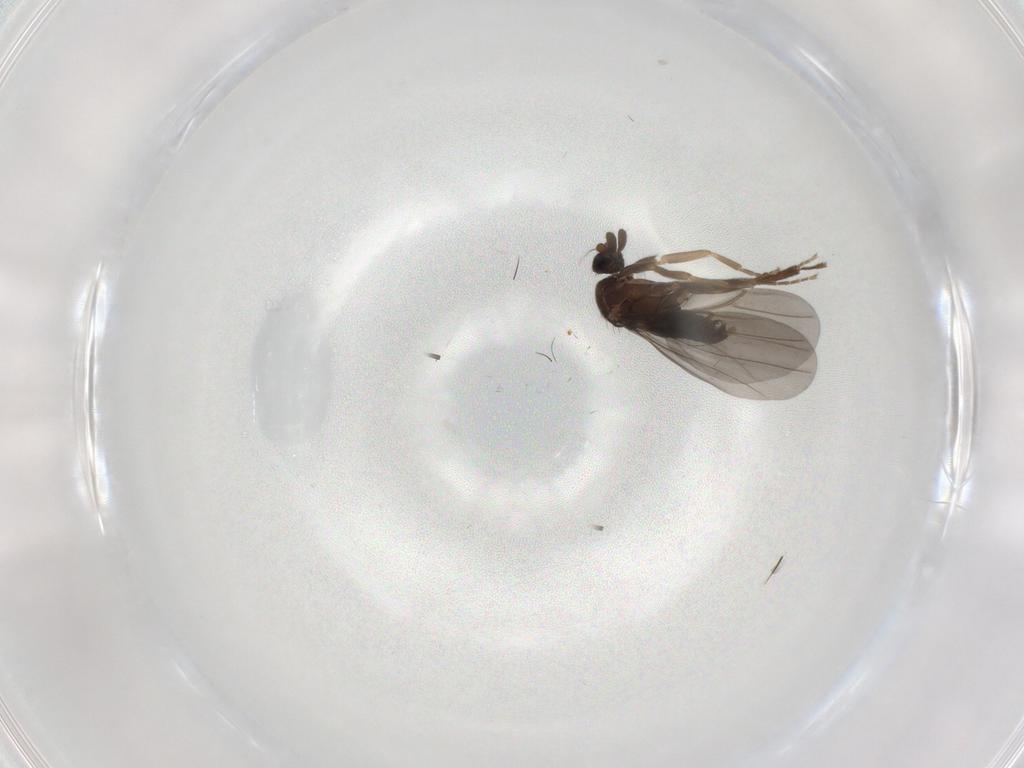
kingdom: Animalia
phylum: Arthropoda
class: Insecta
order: Diptera
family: Phoridae
